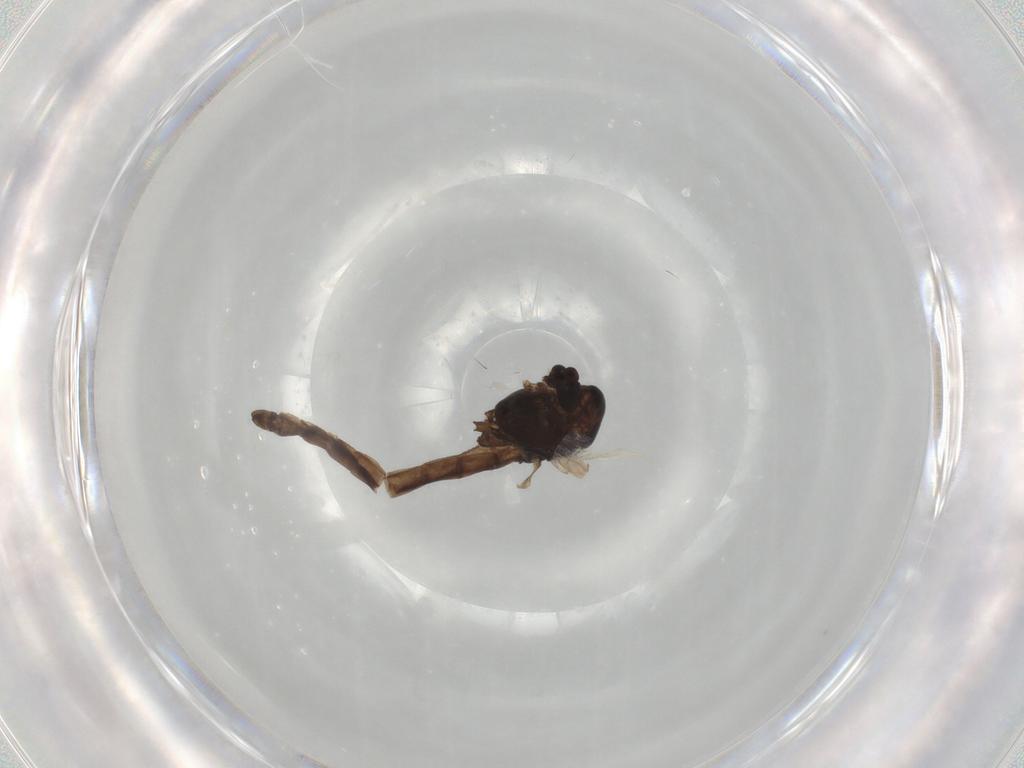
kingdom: Animalia
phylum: Arthropoda
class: Insecta
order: Diptera
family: Chironomidae
